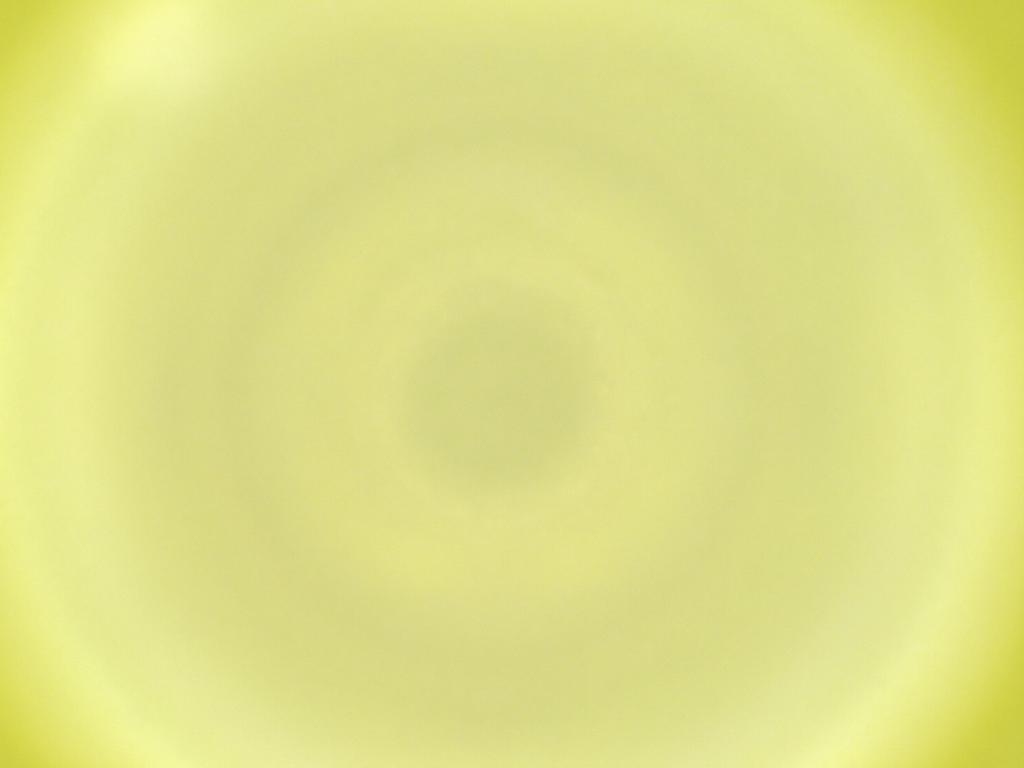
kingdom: Animalia
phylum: Arthropoda
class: Insecta
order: Diptera
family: Cecidomyiidae
